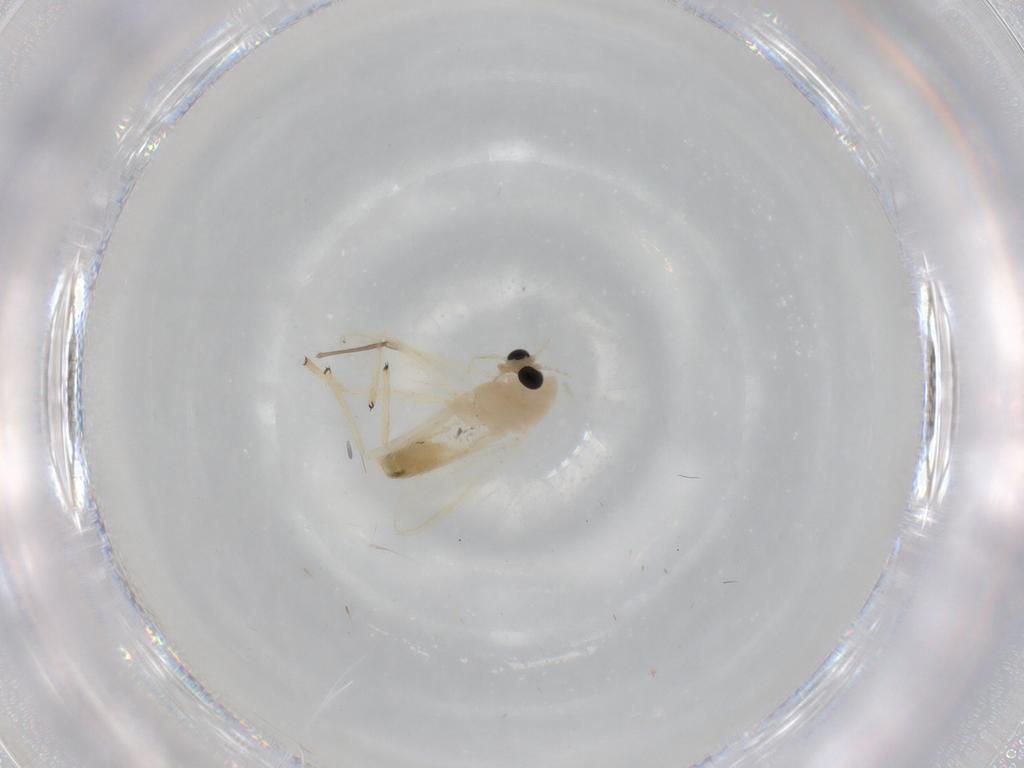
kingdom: Animalia
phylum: Arthropoda
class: Insecta
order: Diptera
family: Chironomidae
